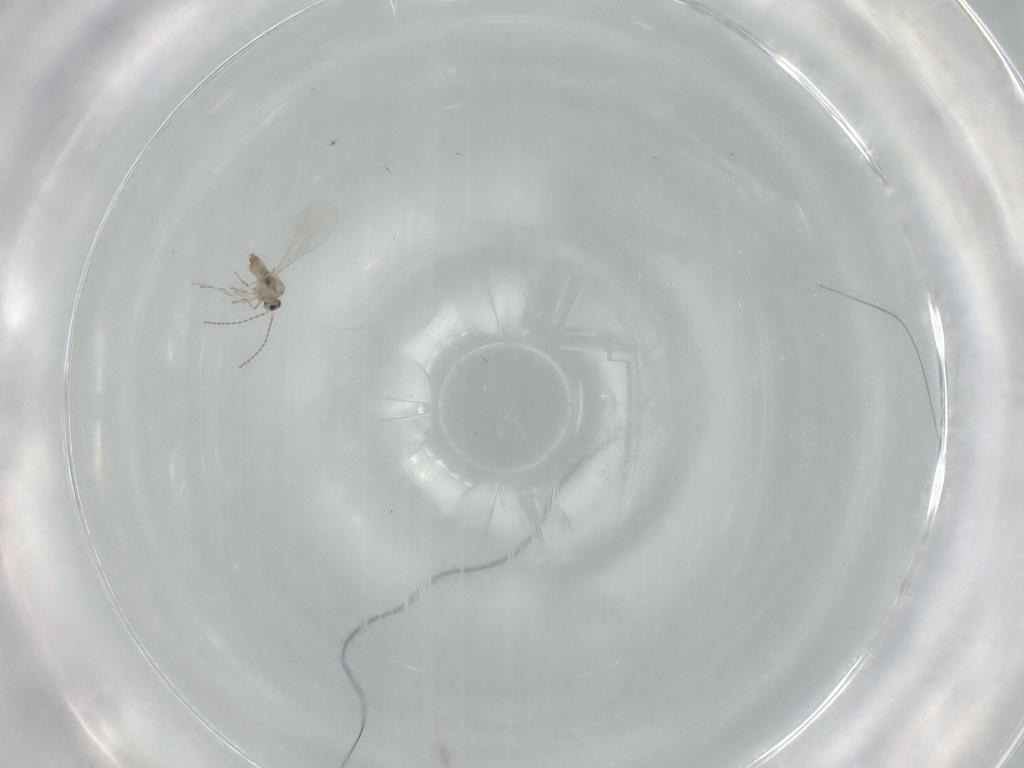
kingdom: Animalia
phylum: Arthropoda
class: Insecta
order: Diptera
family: Cecidomyiidae
